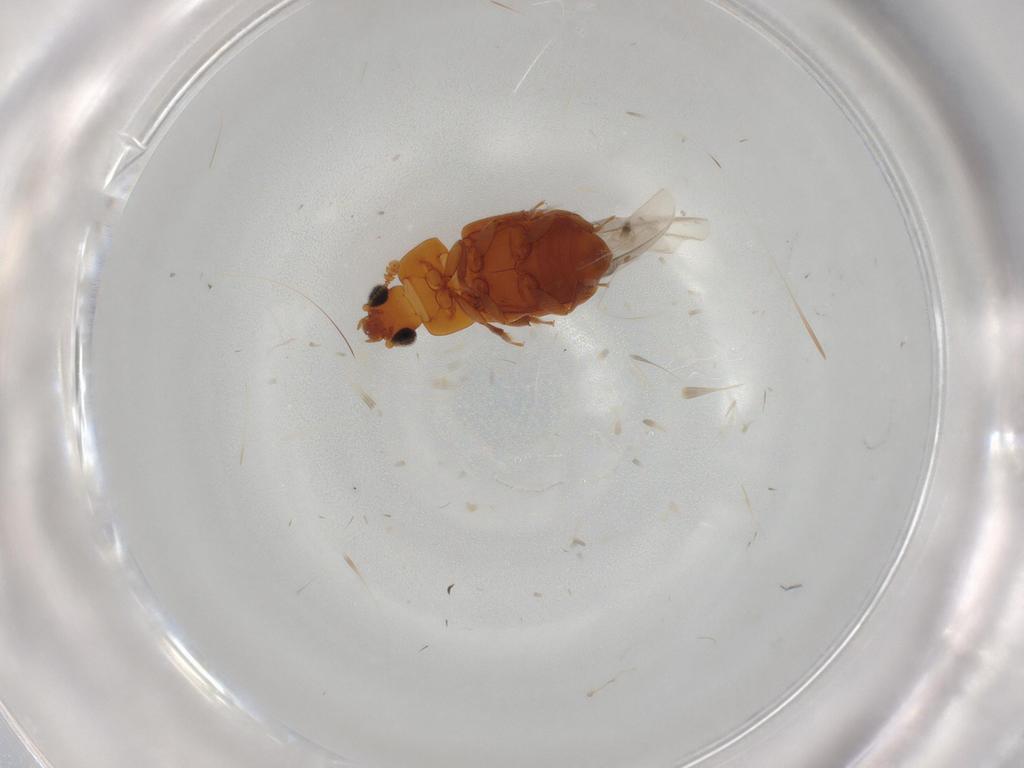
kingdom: Animalia
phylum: Arthropoda
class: Insecta
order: Coleoptera
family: Nitidulidae
